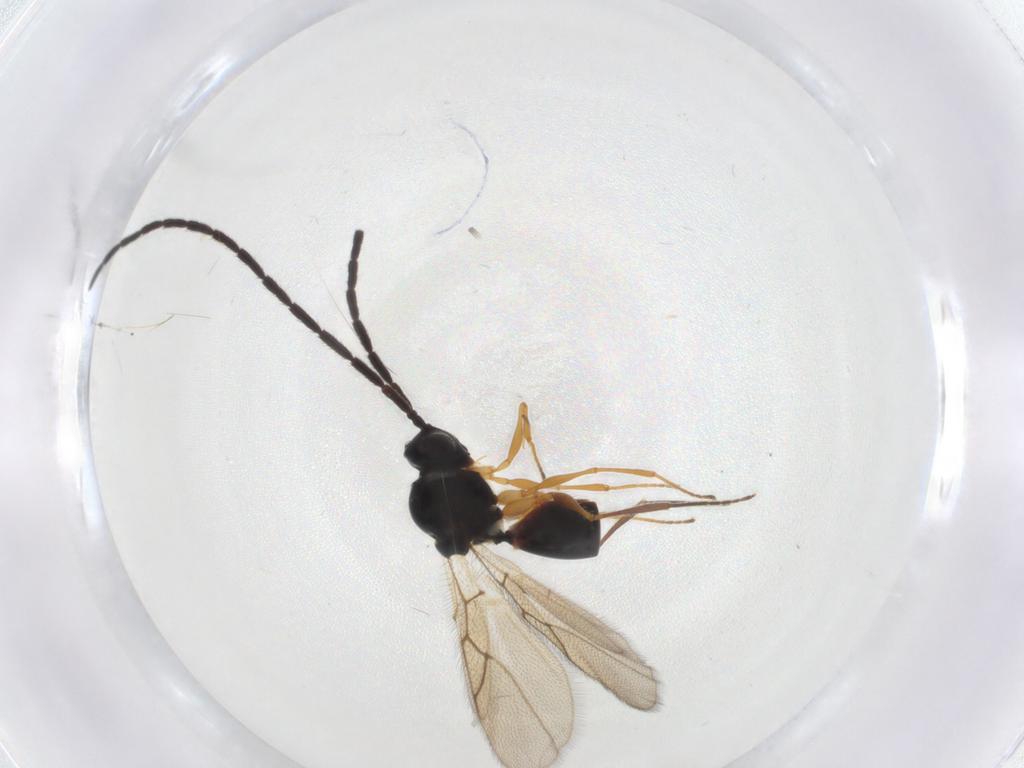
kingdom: Animalia
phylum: Arthropoda
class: Insecta
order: Hymenoptera
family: Figitidae
